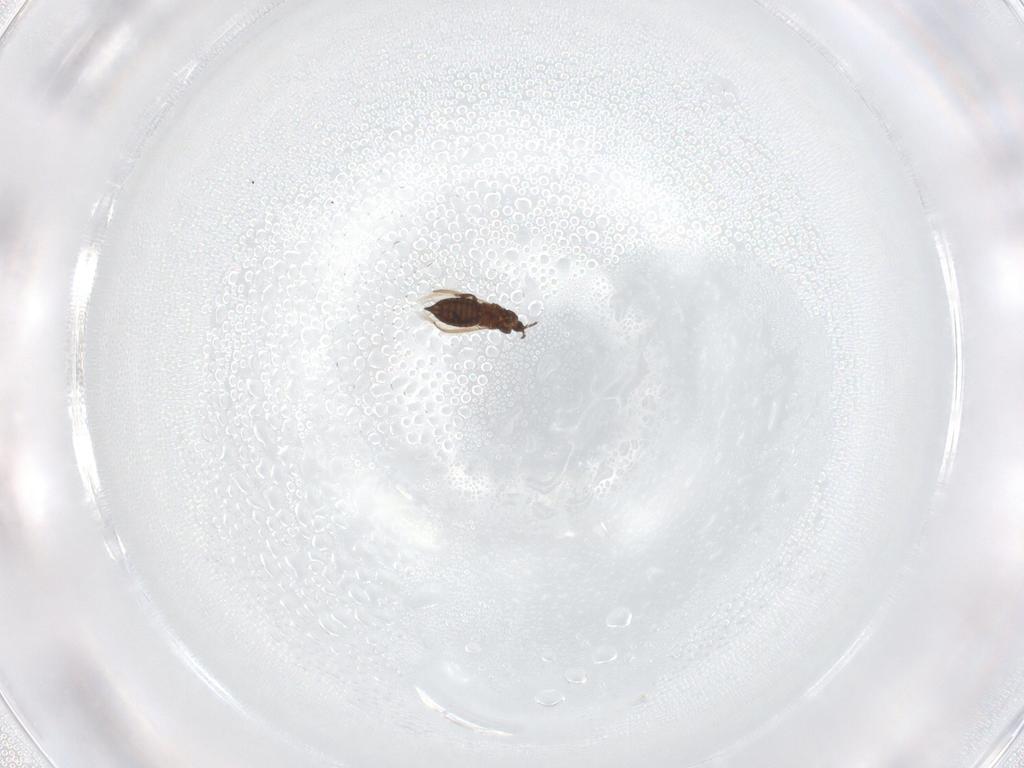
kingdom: Animalia
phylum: Arthropoda
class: Insecta
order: Thysanoptera
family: Thripidae
